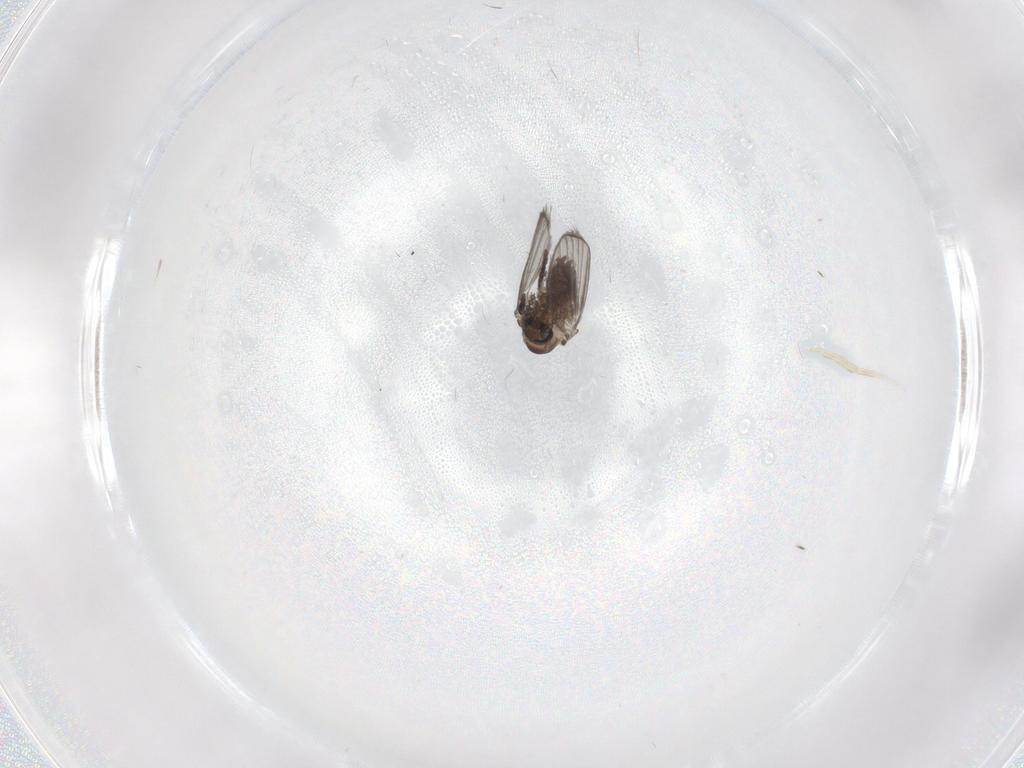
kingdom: Animalia
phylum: Arthropoda
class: Insecta
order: Diptera
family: Psychodidae
